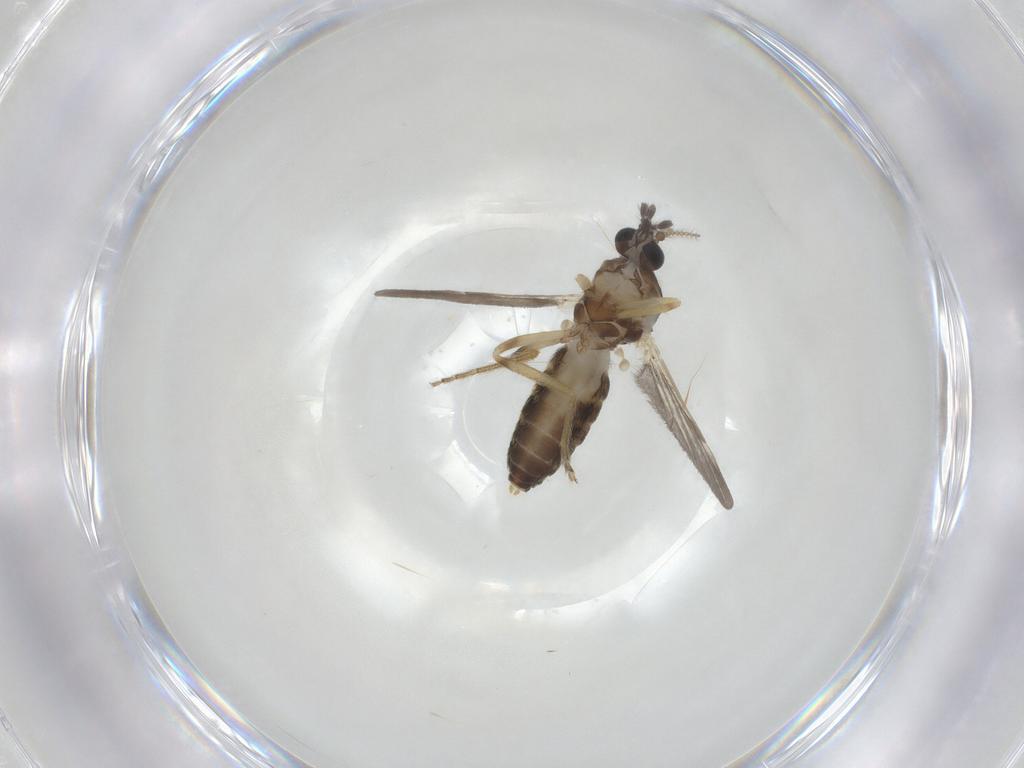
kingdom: Animalia
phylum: Arthropoda
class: Insecta
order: Diptera
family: Ceratopogonidae
